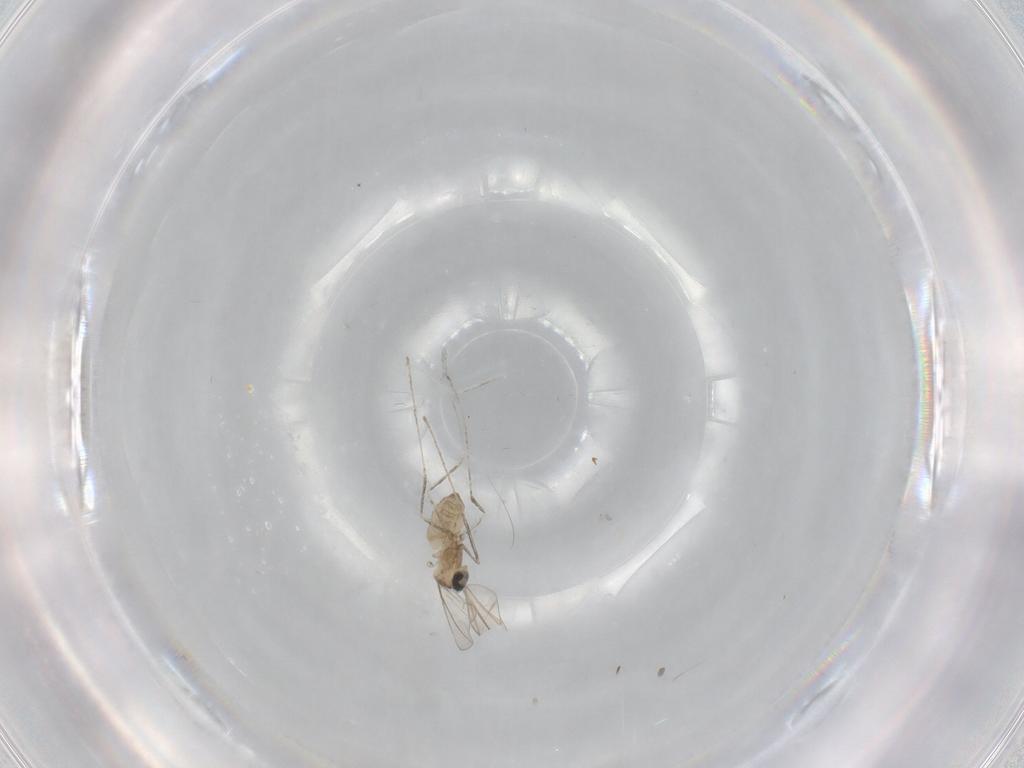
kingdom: Animalia
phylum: Arthropoda
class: Insecta
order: Diptera
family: Cecidomyiidae
